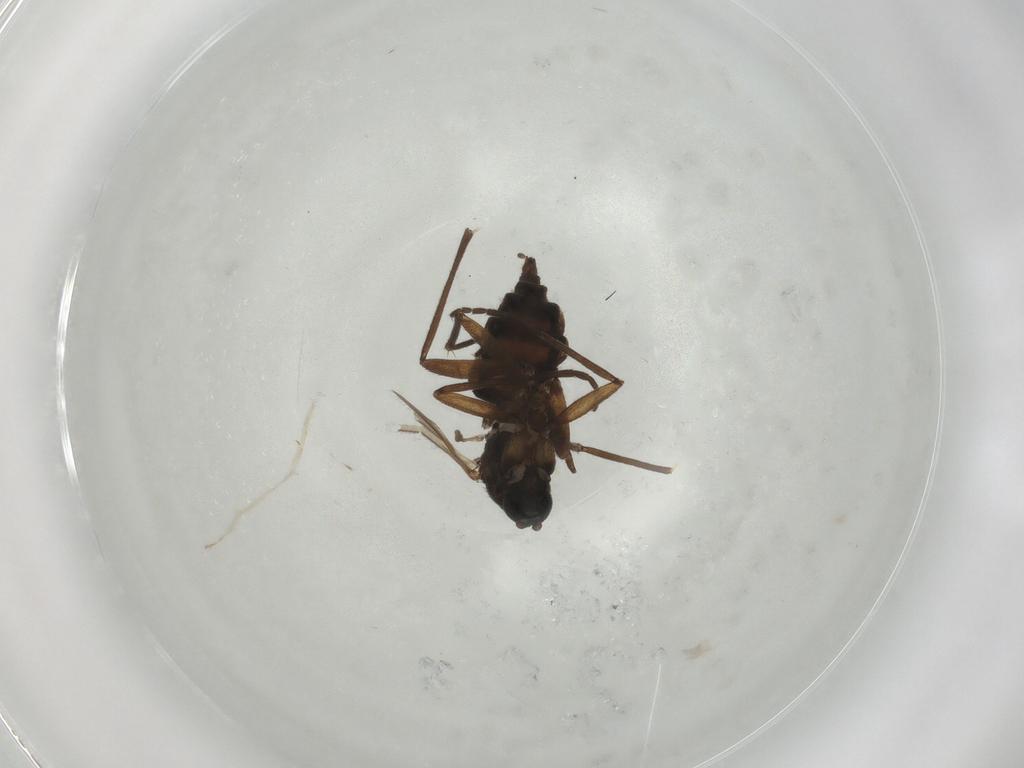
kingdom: Animalia
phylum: Arthropoda
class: Insecta
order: Diptera
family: Sciaridae
